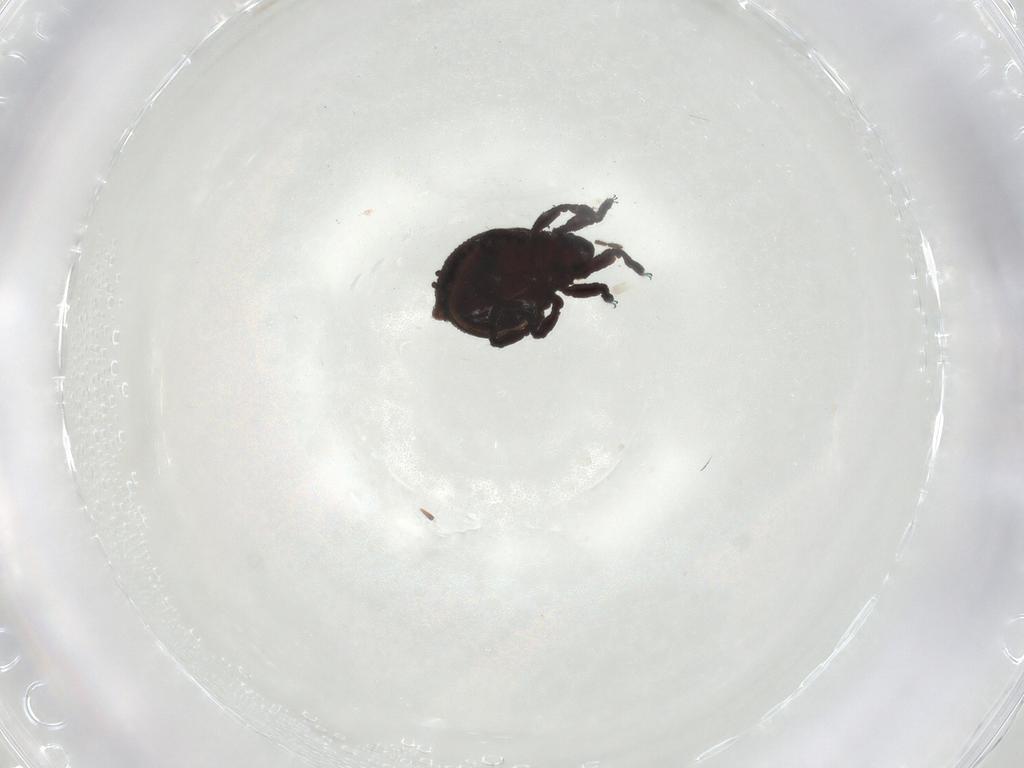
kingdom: Animalia
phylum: Arthropoda
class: Arachnida
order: Sarcoptiformes
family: Neoliodidae
